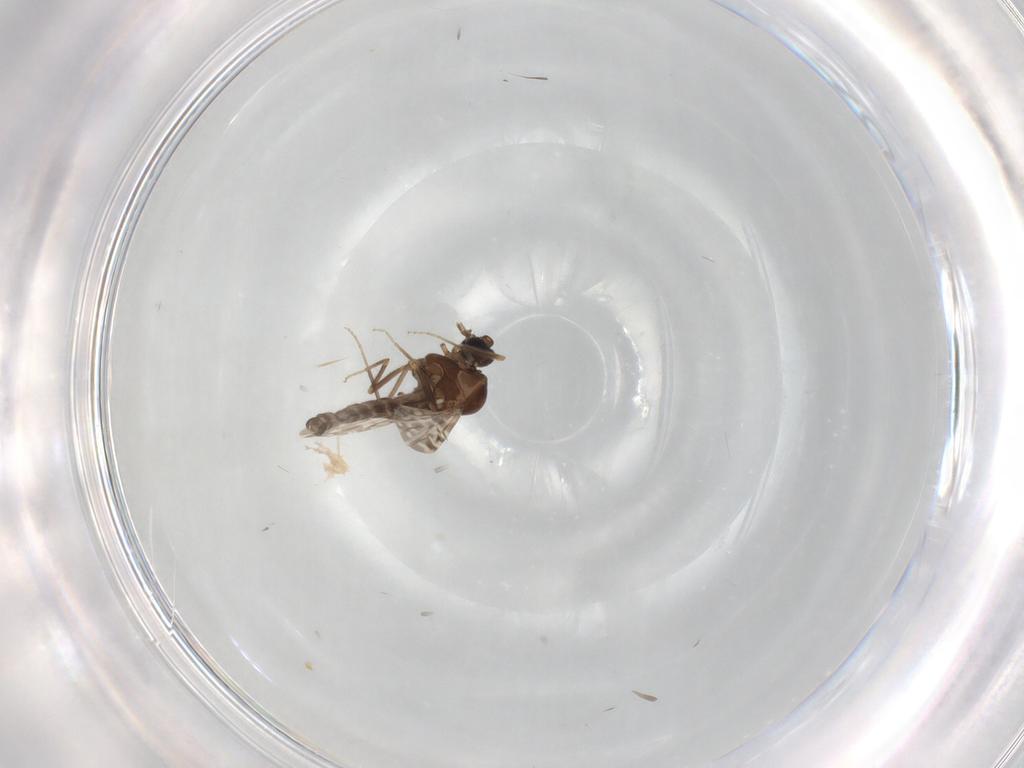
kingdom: Animalia
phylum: Arthropoda
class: Insecta
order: Diptera
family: Ceratopogonidae
